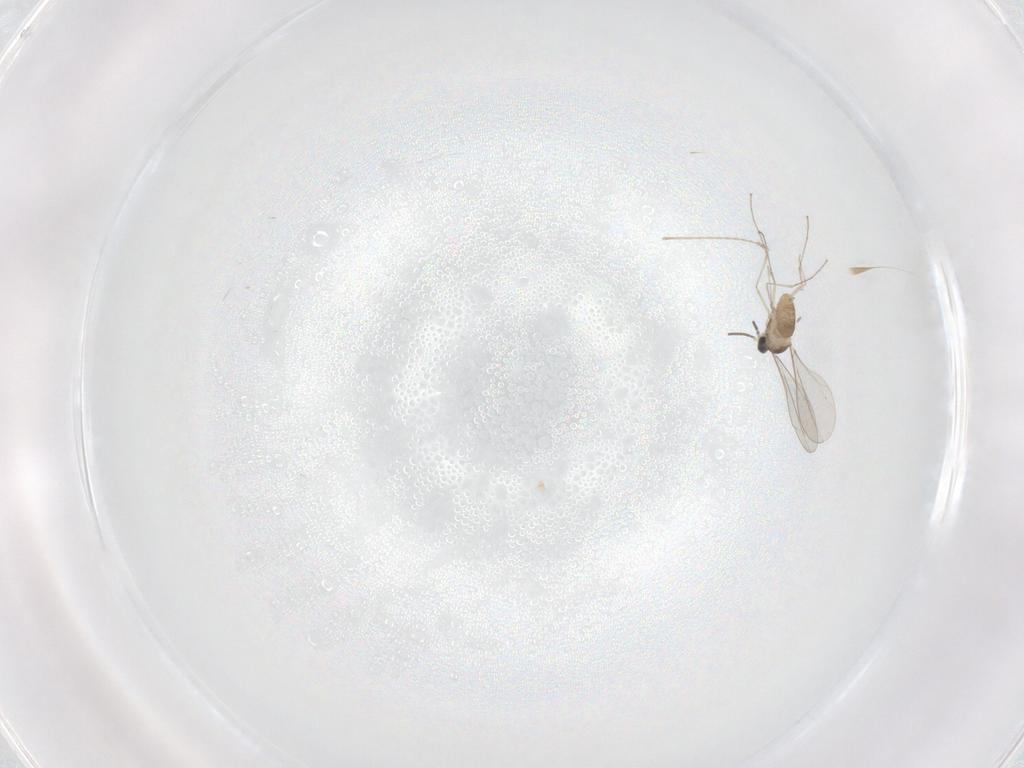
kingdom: Animalia
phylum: Arthropoda
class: Insecta
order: Diptera
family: Cecidomyiidae
